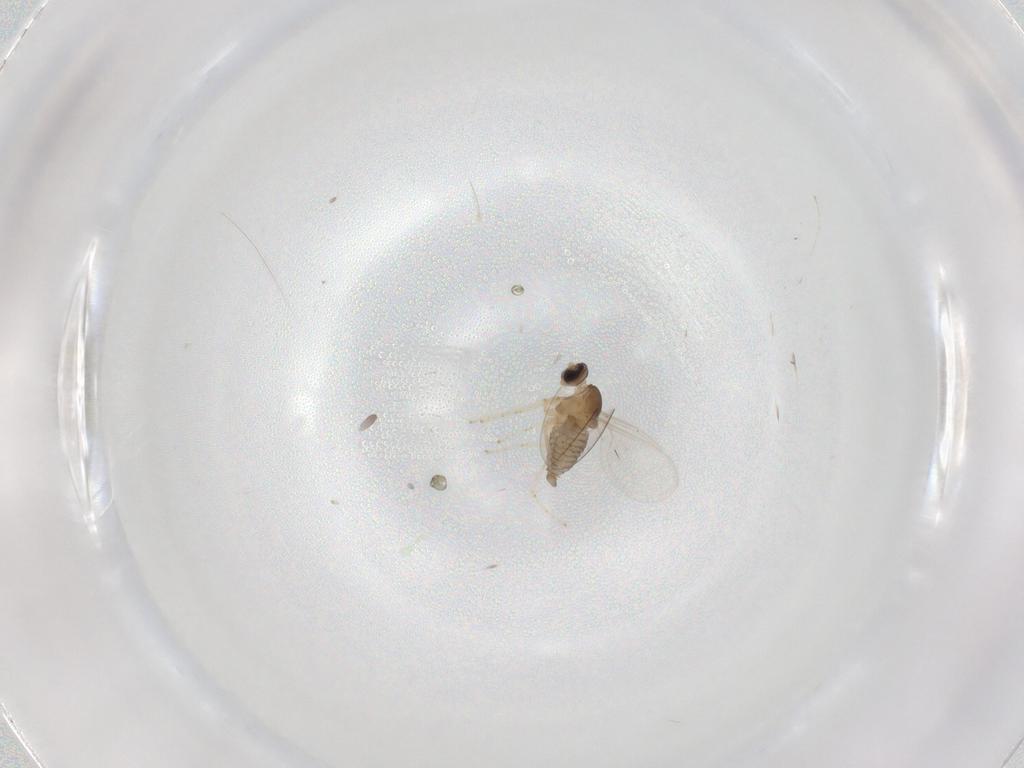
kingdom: Animalia
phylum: Arthropoda
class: Insecta
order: Diptera
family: Cecidomyiidae
